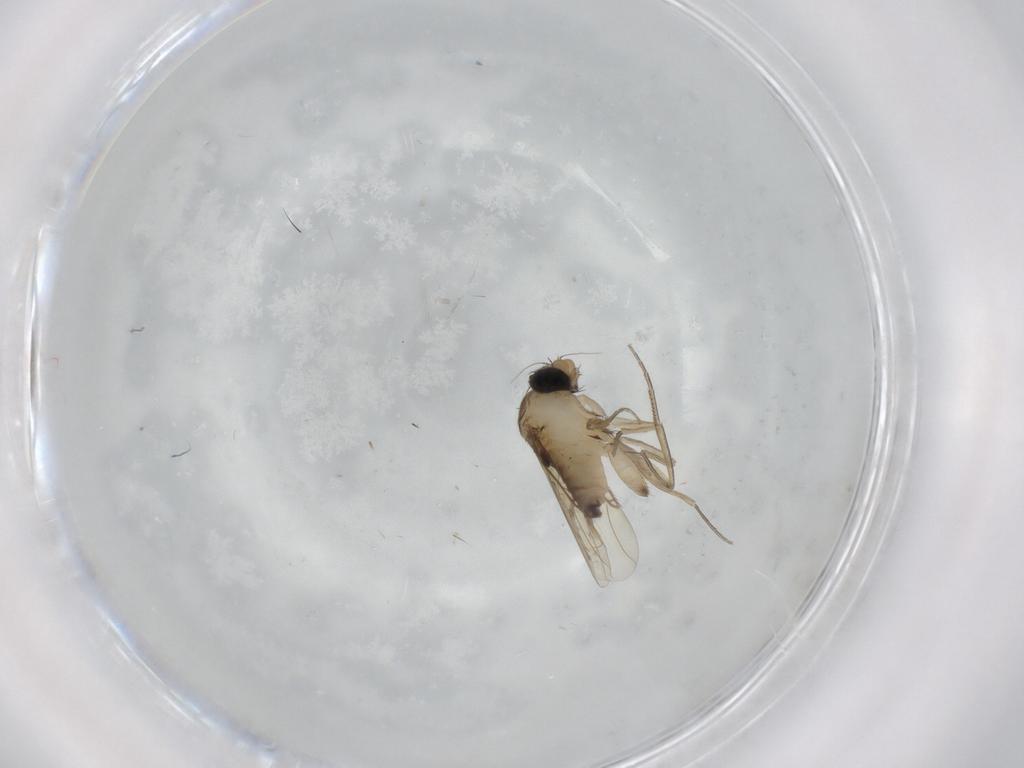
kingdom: Animalia
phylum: Arthropoda
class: Insecta
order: Diptera
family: Phoridae
